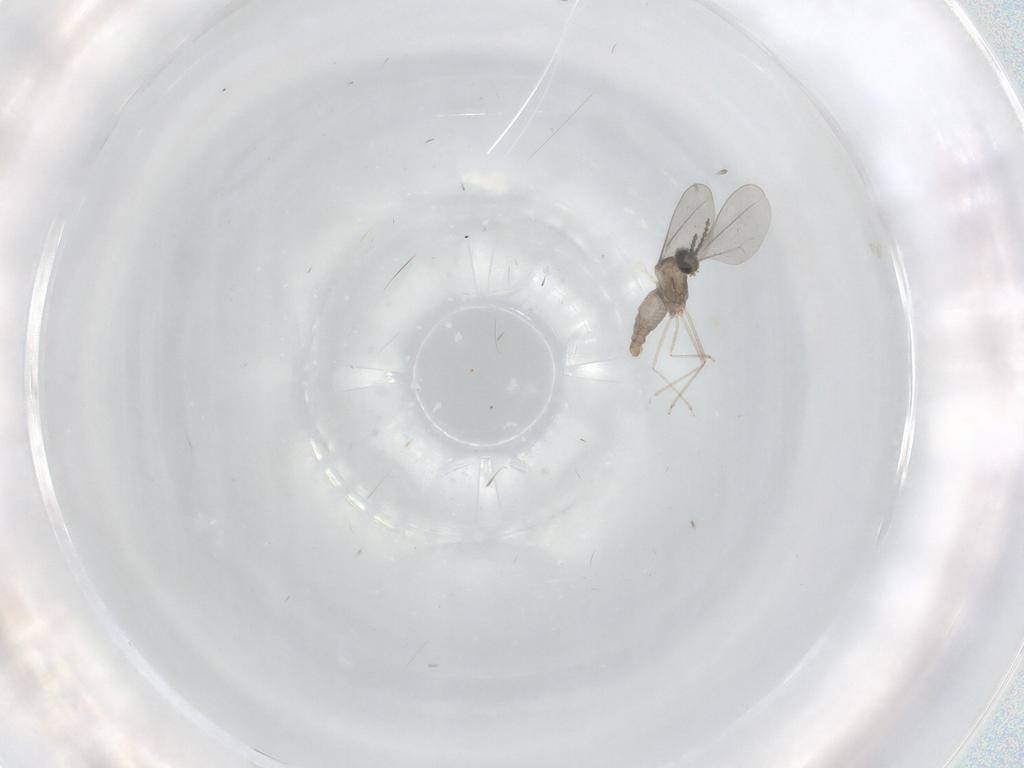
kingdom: Animalia
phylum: Arthropoda
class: Insecta
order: Diptera
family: Cecidomyiidae
